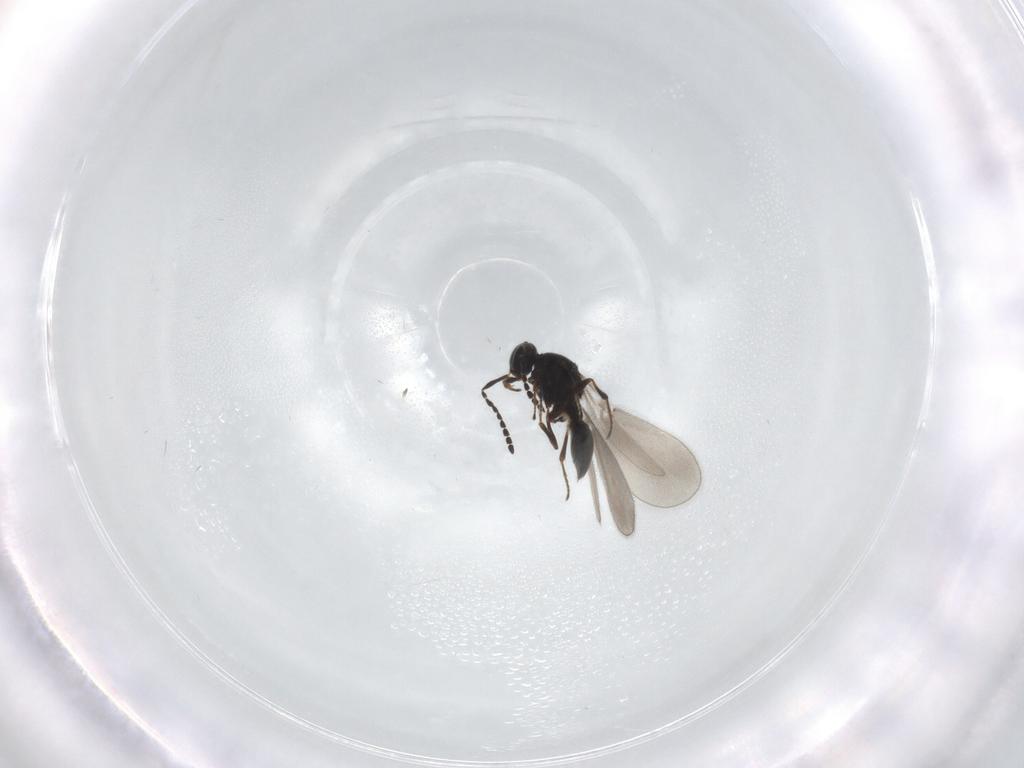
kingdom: Animalia
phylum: Arthropoda
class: Insecta
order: Hymenoptera
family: Platygastridae
